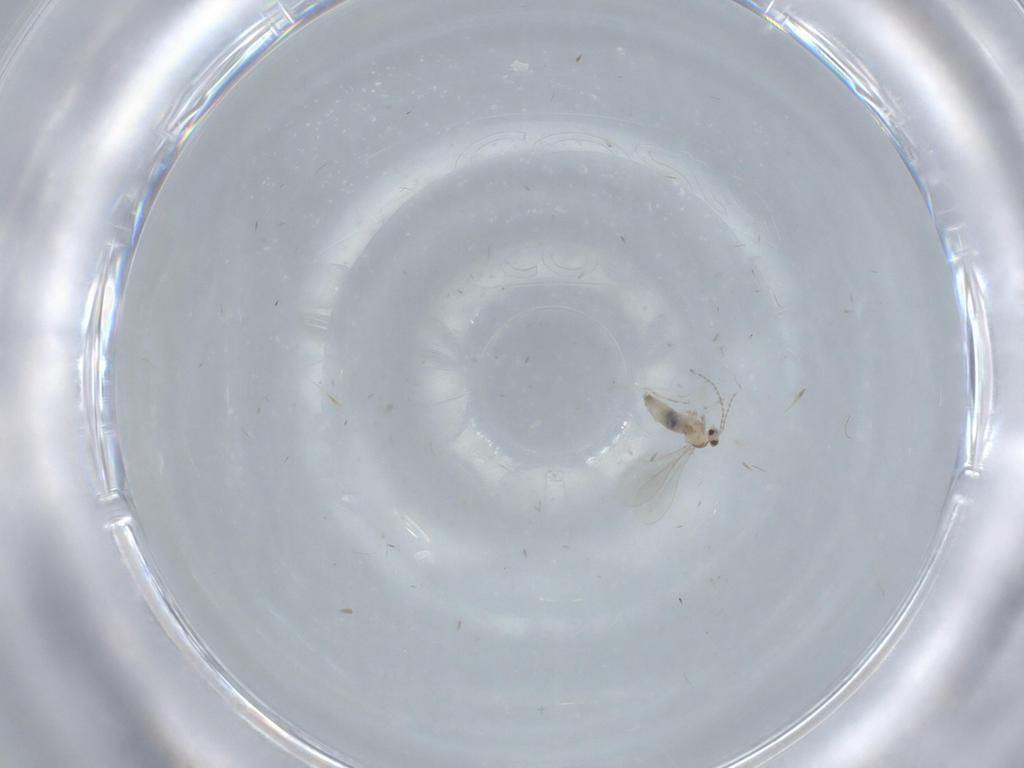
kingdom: Animalia
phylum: Arthropoda
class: Insecta
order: Diptera
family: Cecidomyiidae
